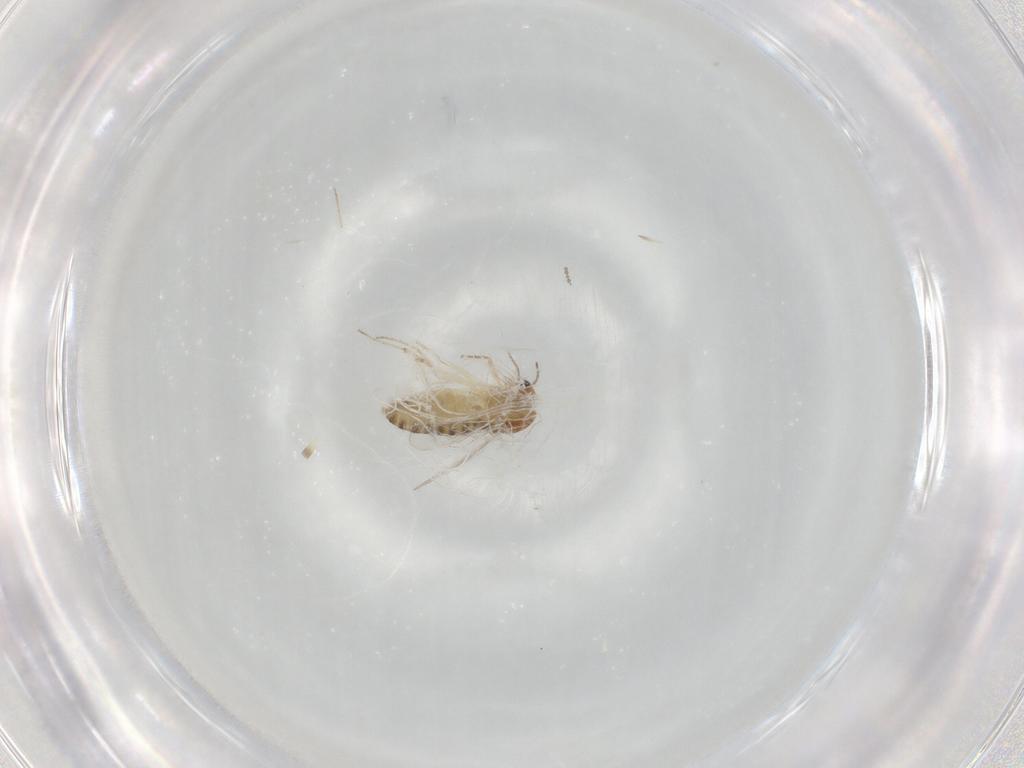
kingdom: Animalia
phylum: Arthropoda
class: Insecta
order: Diptera
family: Chironomidae
